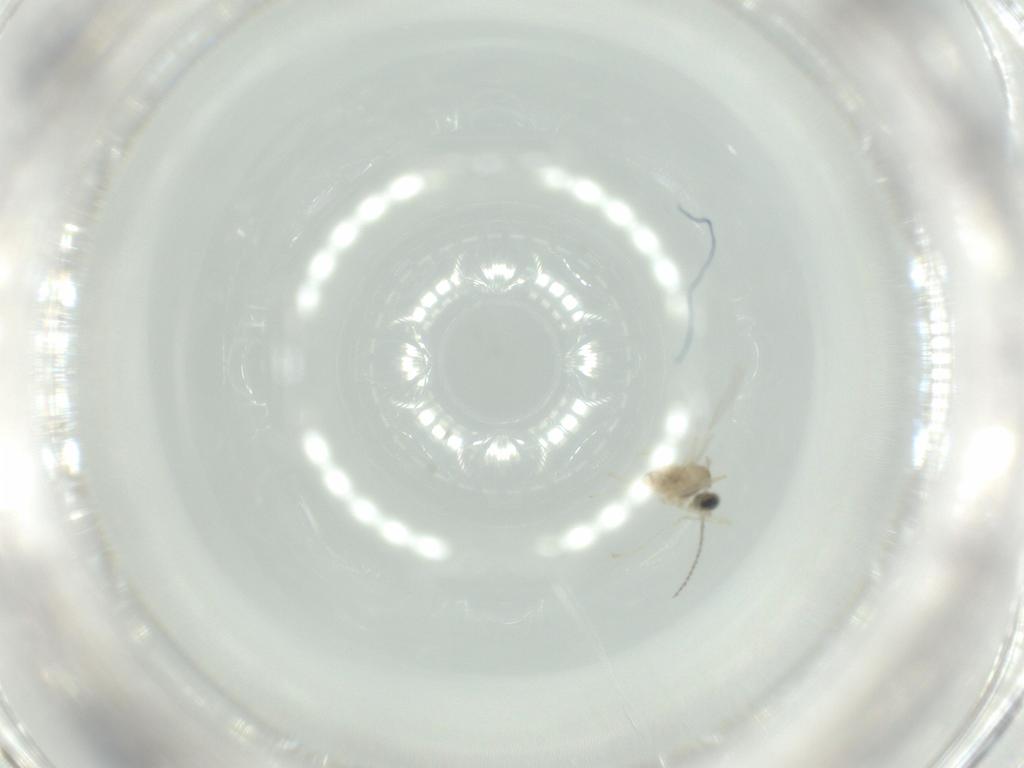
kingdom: Animalia
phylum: Arthropoda
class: Insecta
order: Diptera
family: Cecidomyiidae
